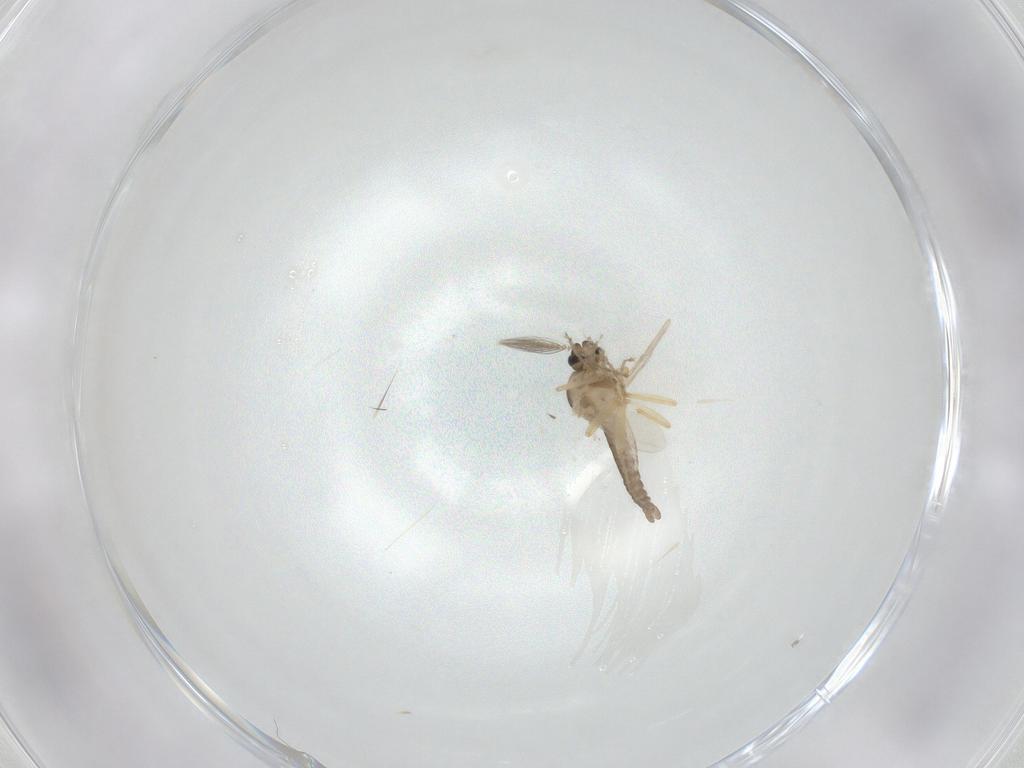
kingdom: Animalia
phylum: Arthropoda
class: Insecta
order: Diptera
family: Ceratopogonidae
